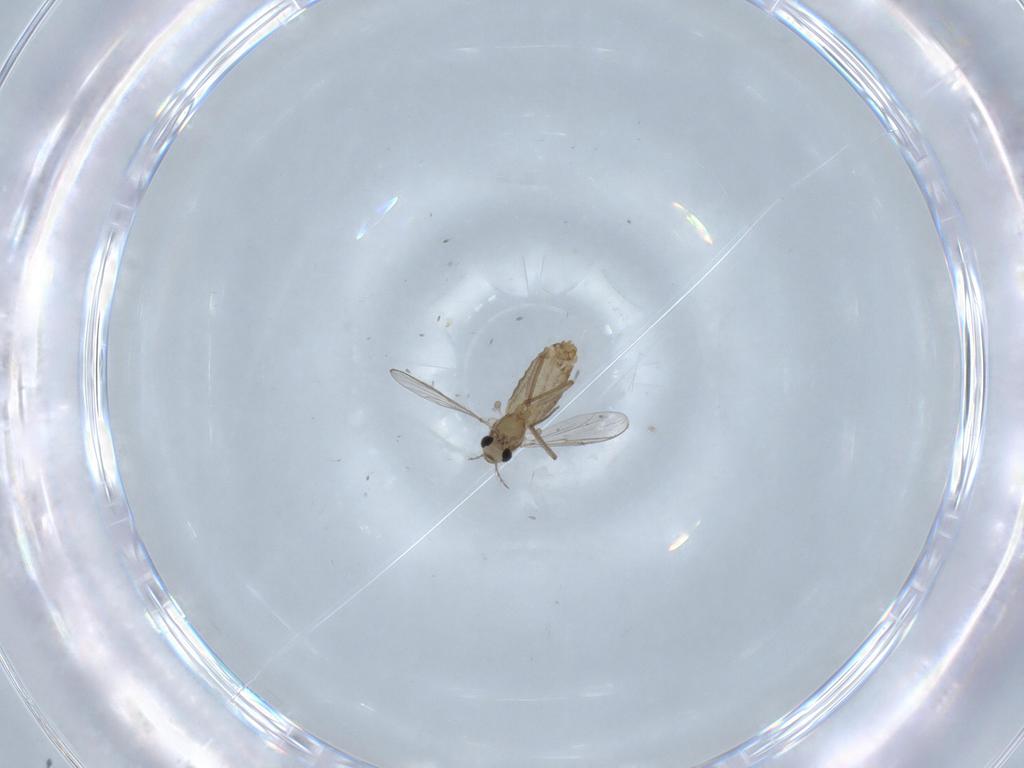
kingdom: Animalia
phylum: Arthropoda
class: Insecta
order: Diptera
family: Chironomidae
